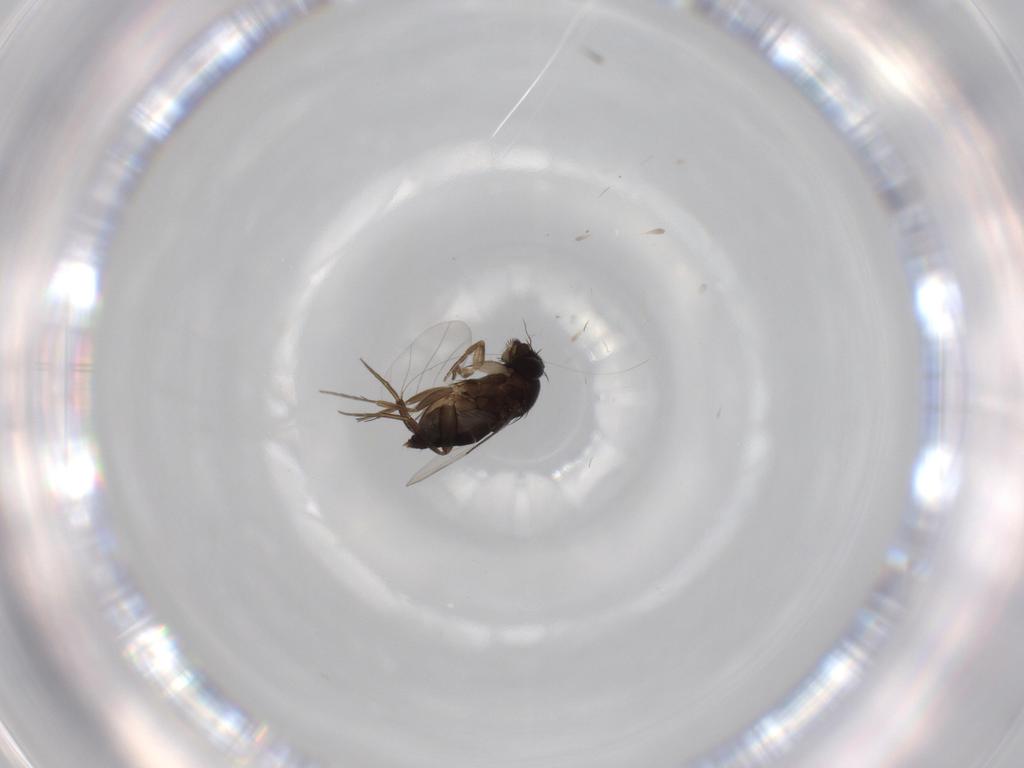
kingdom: Animalia
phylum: Arthropoda
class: Insecta
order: Diptera
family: Phoridae
